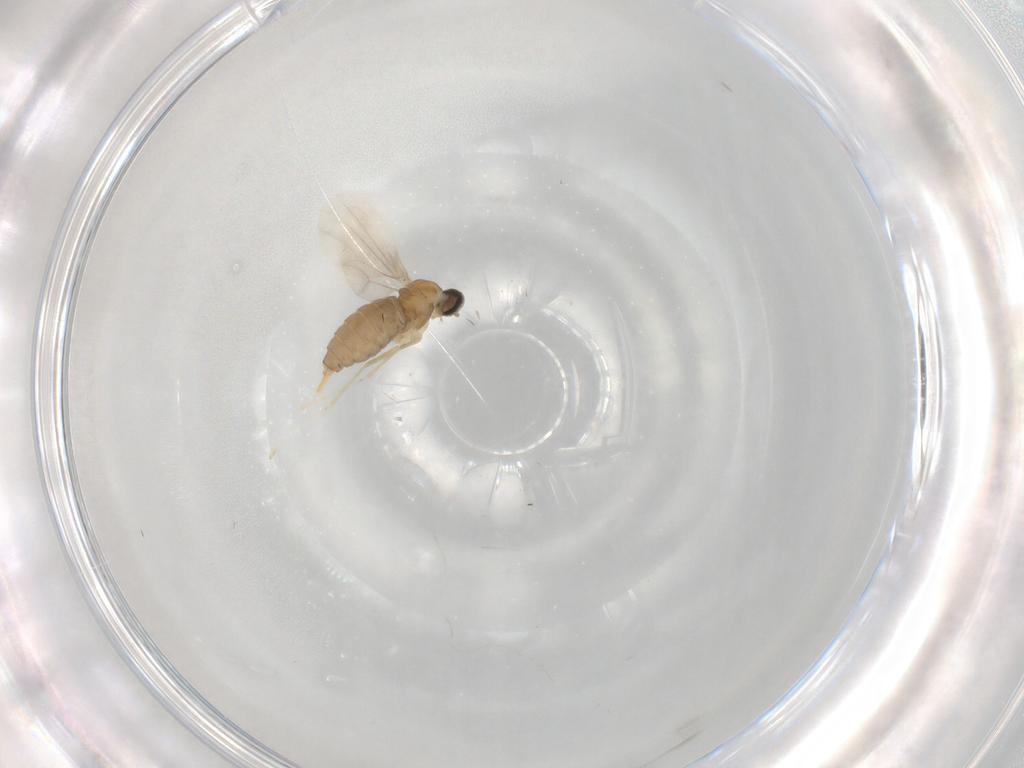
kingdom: Animalia
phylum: Arthropoda
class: Insecta
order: Diptera
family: Cecidomyiidae
